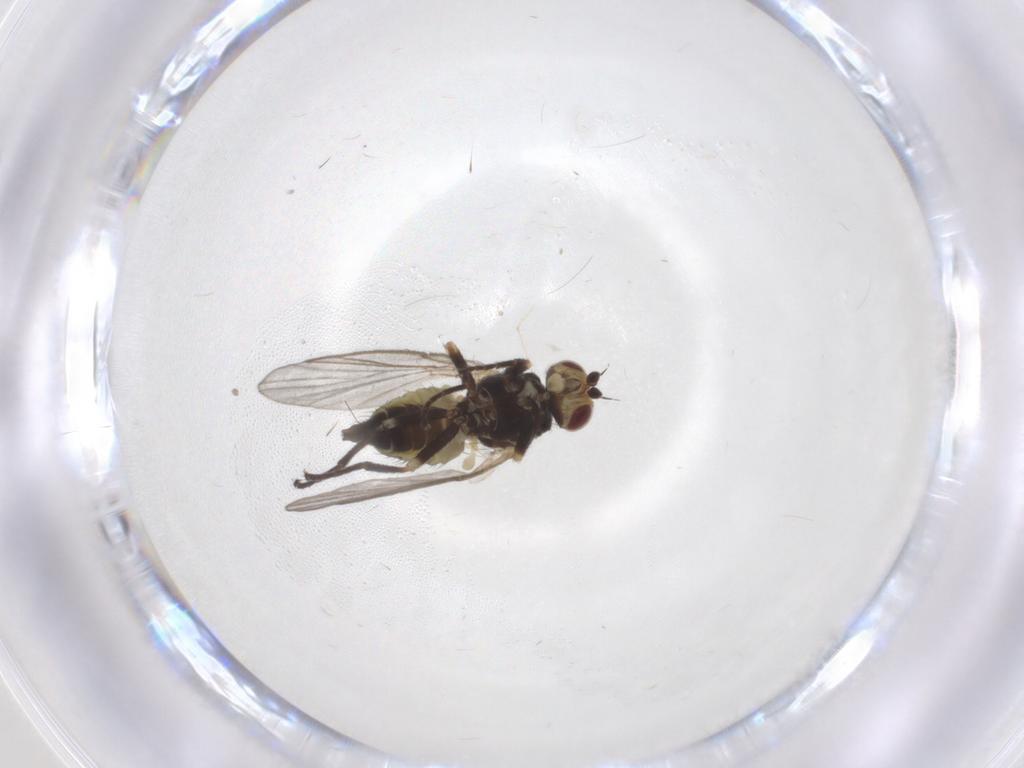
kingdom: Animalia
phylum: Arthropoda
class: Insecta
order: Diptera
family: Agromyzidae
